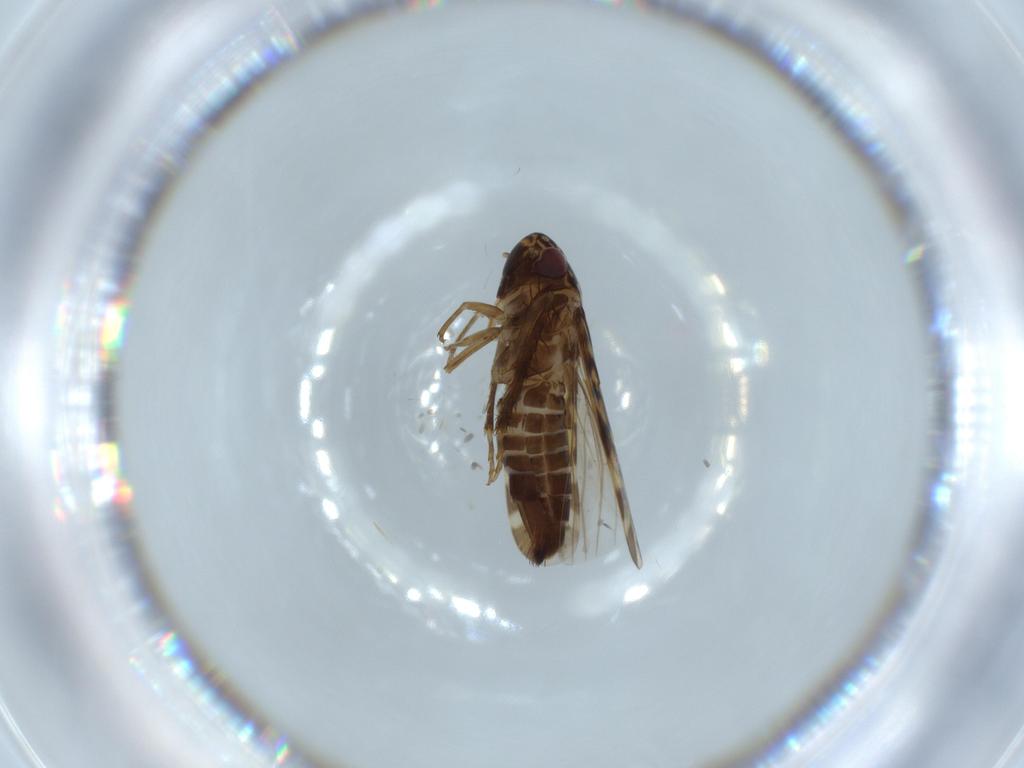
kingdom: Animalia
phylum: Arthropoda
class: Insecta
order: Hemiptera
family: Cicadellidae
